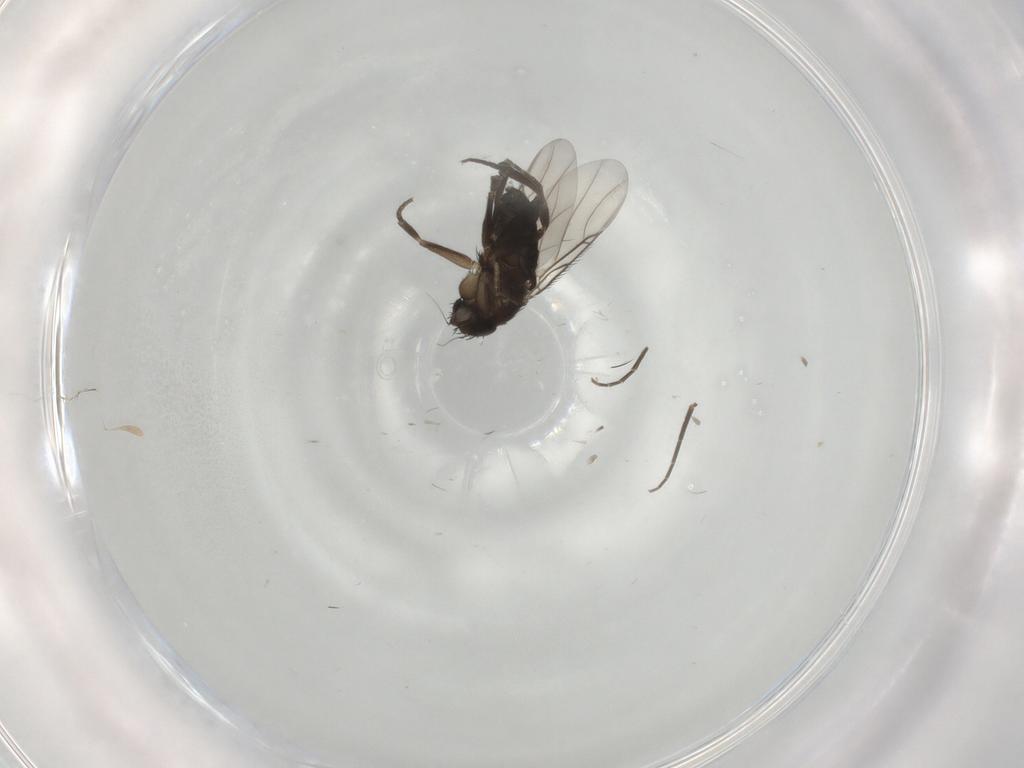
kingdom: Animalia
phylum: Arthropoda
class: Insecta
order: Diptera
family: Phoridae
